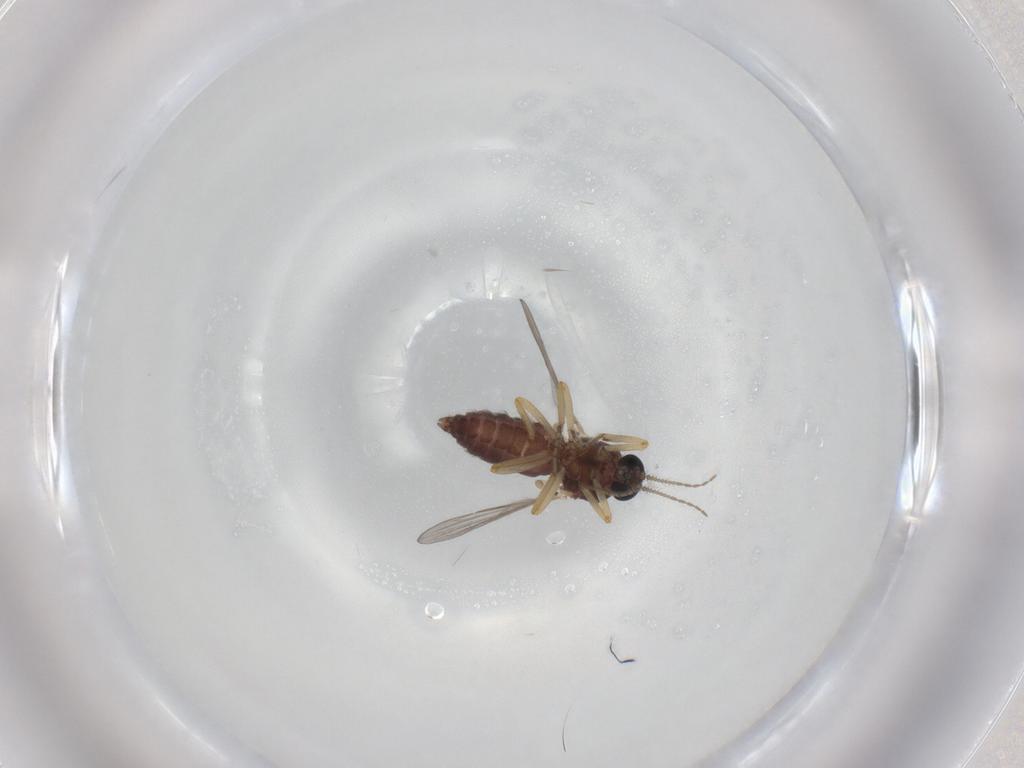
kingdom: Animalia
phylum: Arthropoda
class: Insecta
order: Diptera
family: Ceratopogonidae
